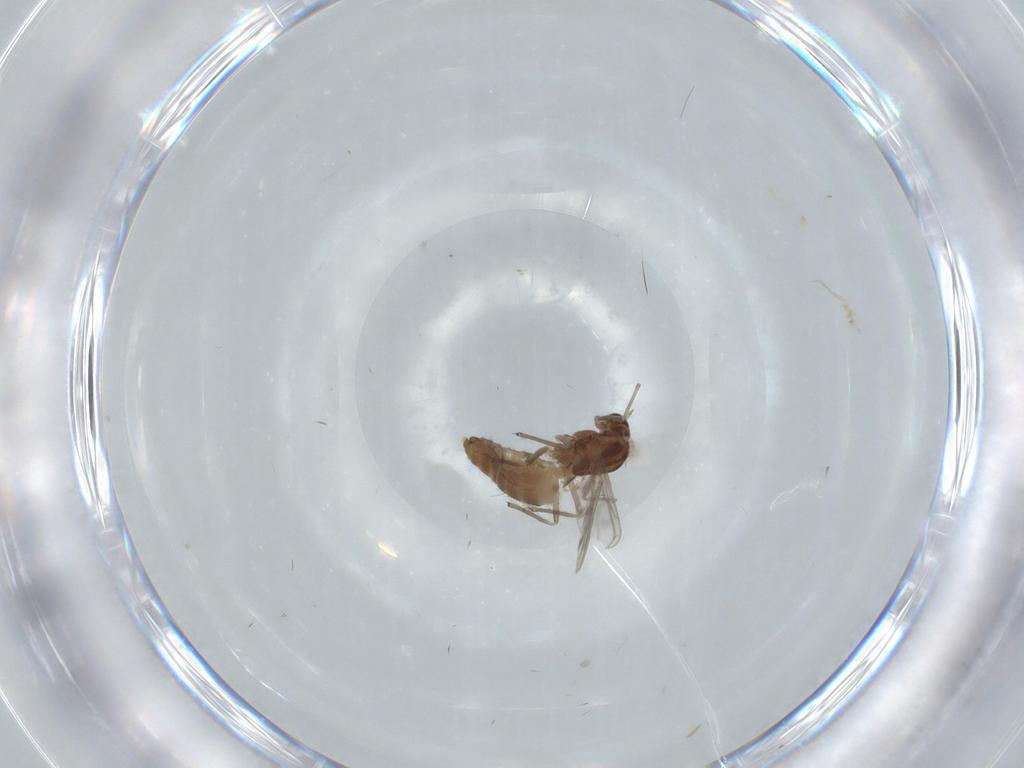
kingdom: Animalia
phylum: Arthropoda
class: Insecta
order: Diptera
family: Chironomidae
